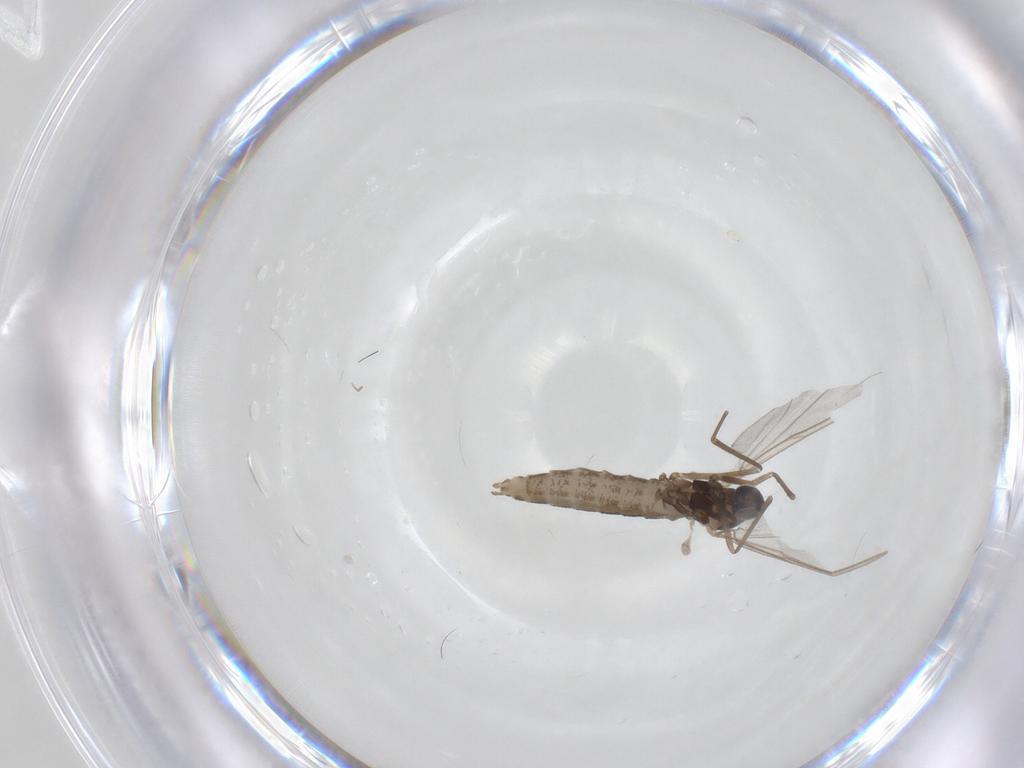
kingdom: Animalia
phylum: Arthropoda
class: Insecta
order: Diptera
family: Cecidomyiidae
